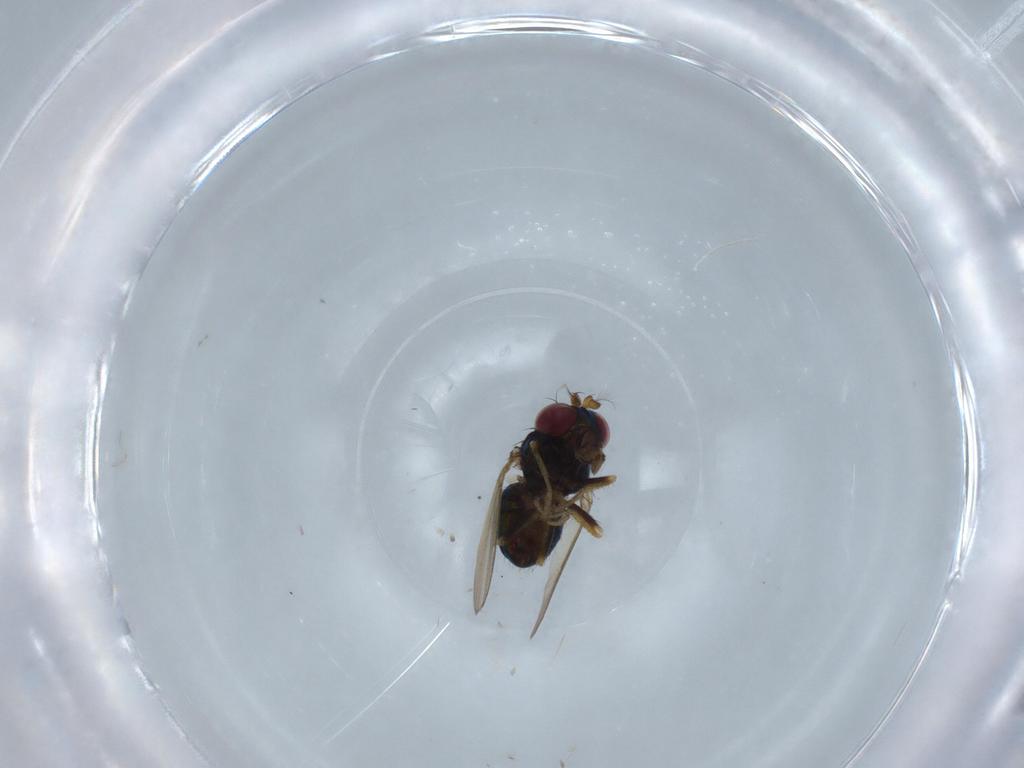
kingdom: Animalia
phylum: Arthropoda
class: Insecta
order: Diptera
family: Ephydridae
